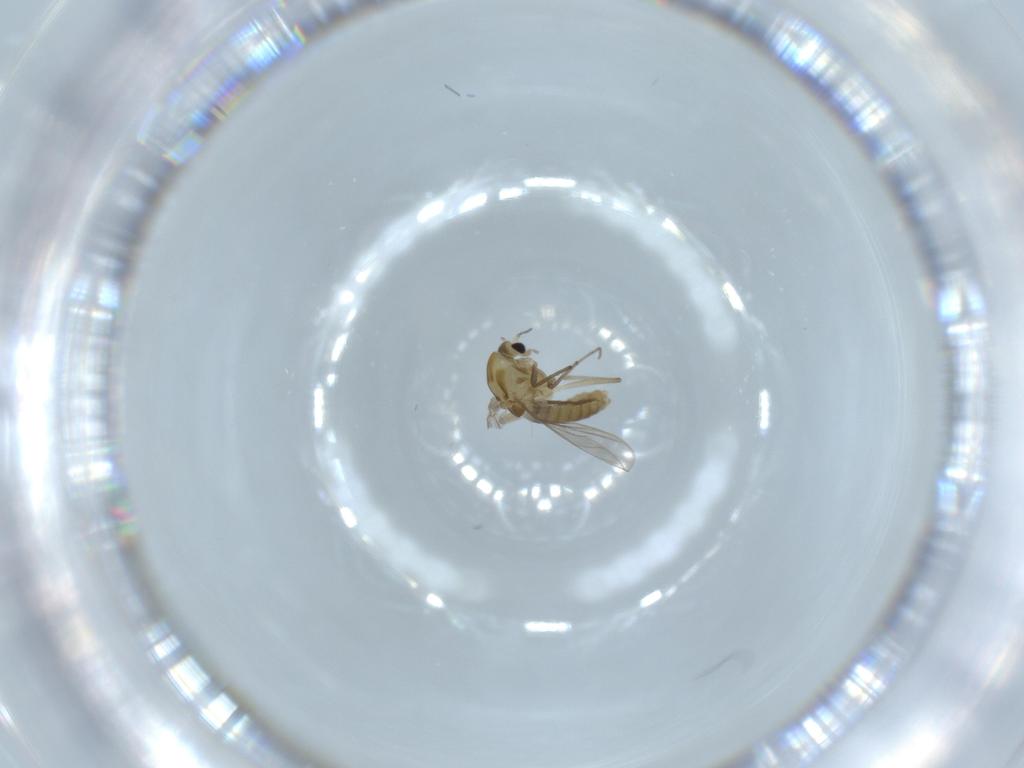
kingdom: Animalia
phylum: Arthropoda
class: Insecta
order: Diptera
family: Chironomidae
